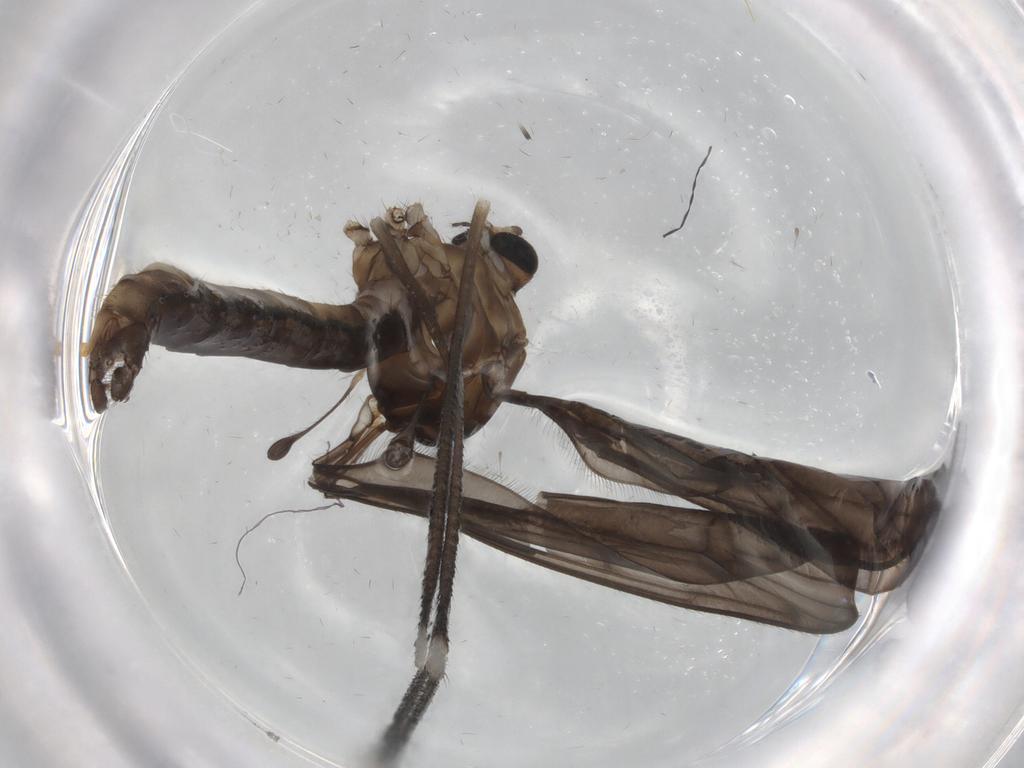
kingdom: Animalia
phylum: Arthropoda
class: Insecta
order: Diptera
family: Limoniidae
